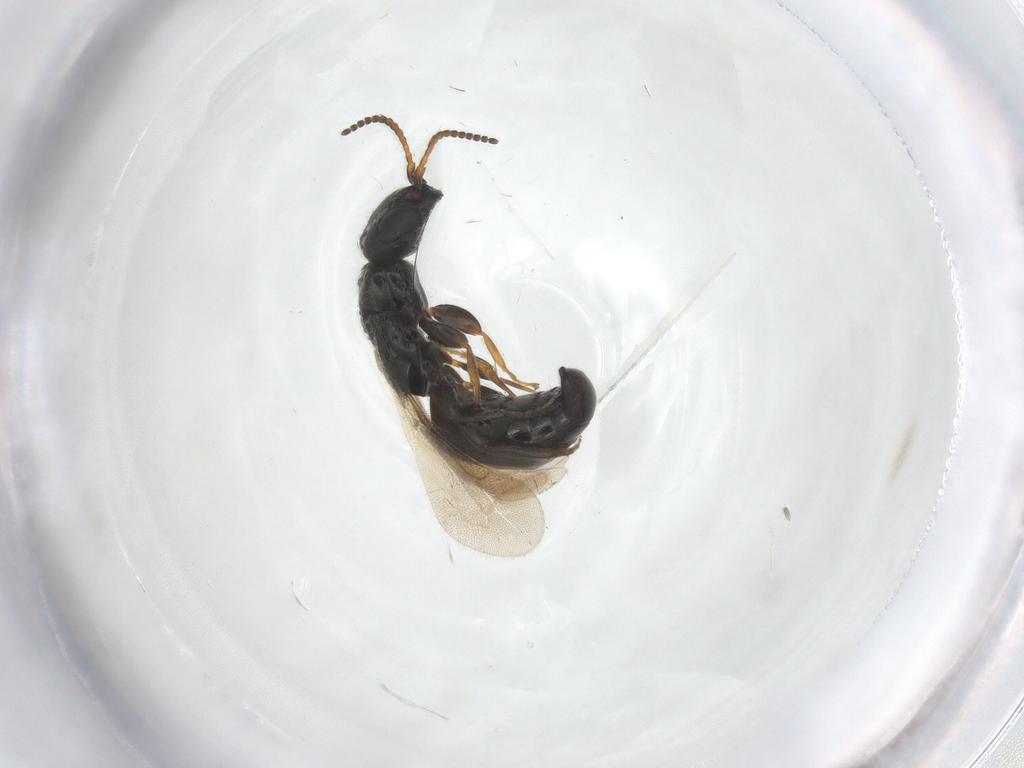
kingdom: Animalia
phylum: Arthropoda
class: Insecta
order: Hymenoptera
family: Bethylidae
